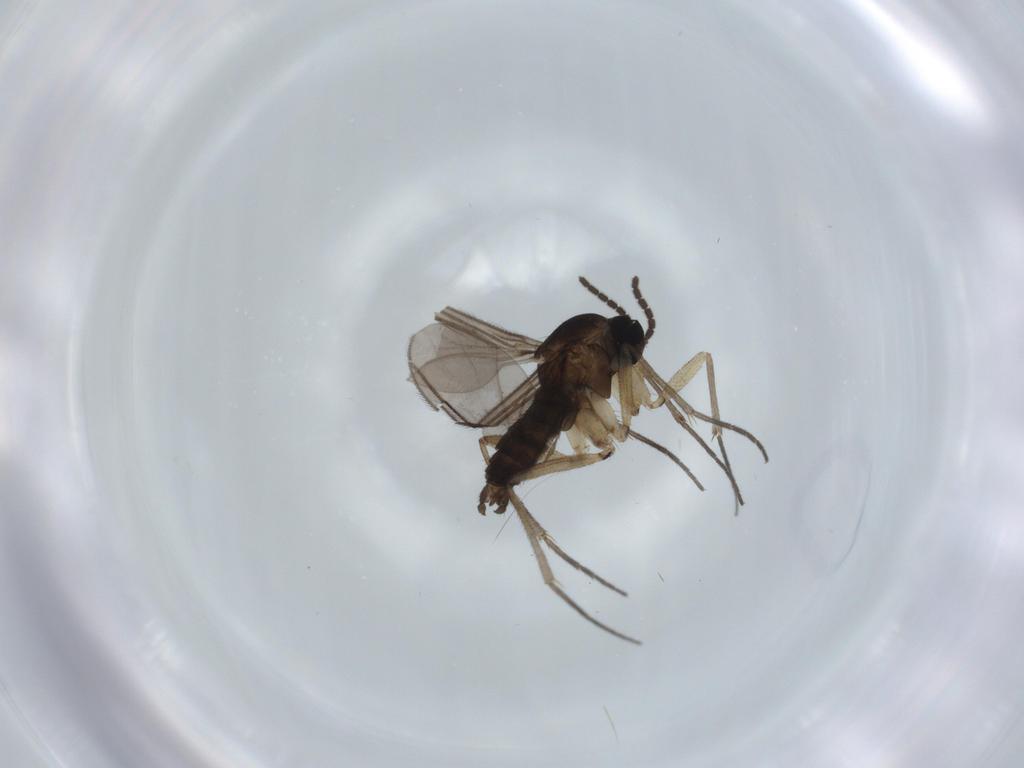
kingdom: Animalia
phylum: Arthropoda
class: Insecta
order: Diptera
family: Sciaridae
